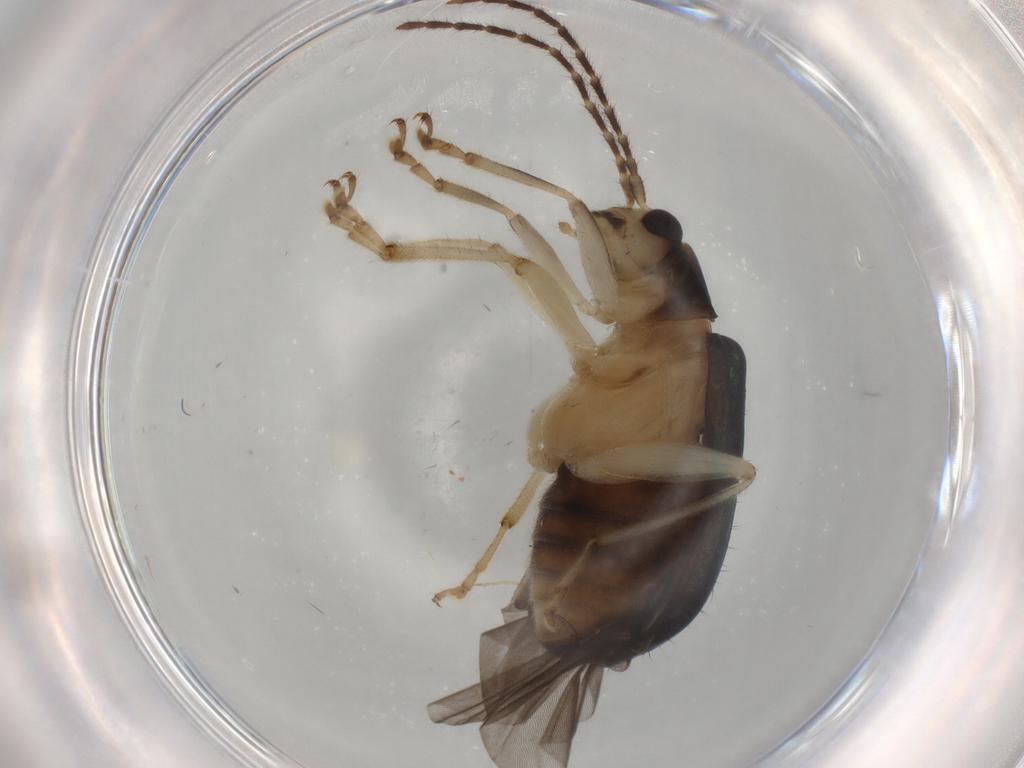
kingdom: Animalia
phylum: Arthropoda
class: Insecta
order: Coleoptera
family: Chrysomelidae
